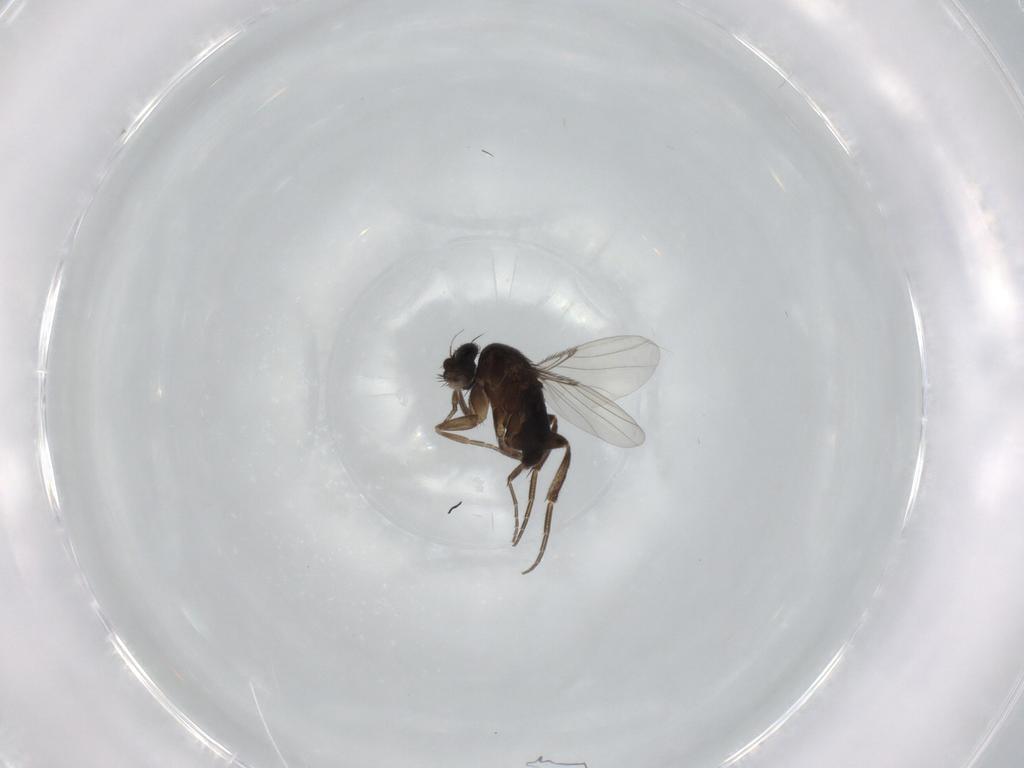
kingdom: Animalia
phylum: Arthropoda
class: Insecta
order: Diptera
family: Phoridae
